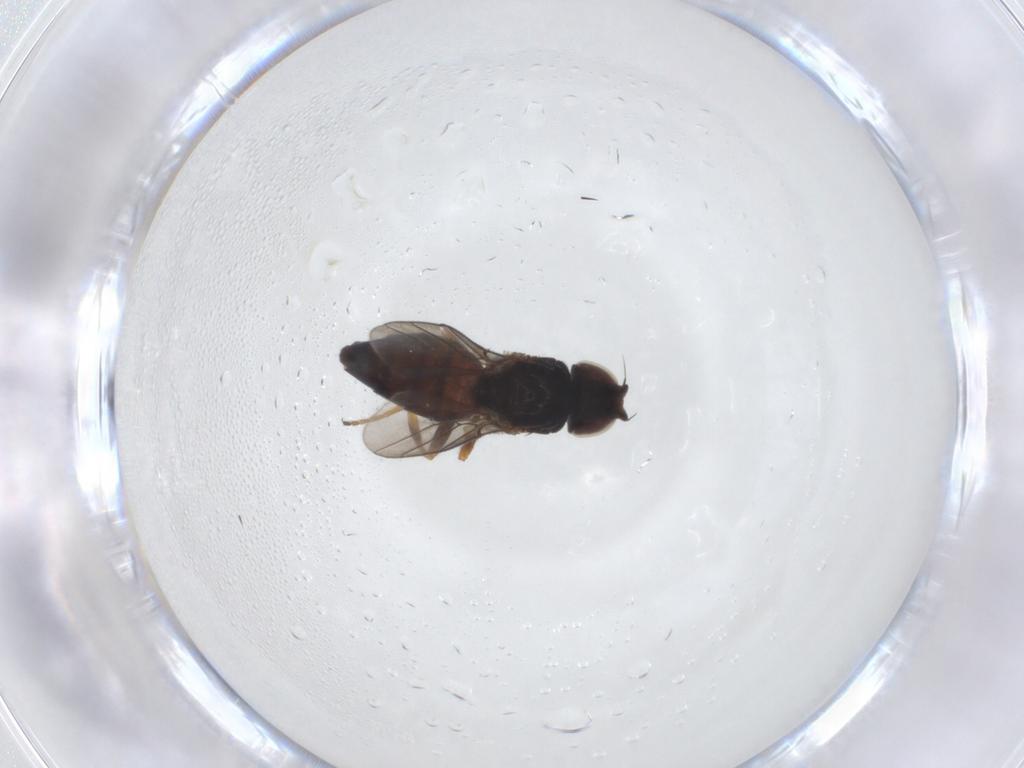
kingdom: Animalia
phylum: Arthropoda
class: Insecta
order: Diptera
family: Chloropidae
